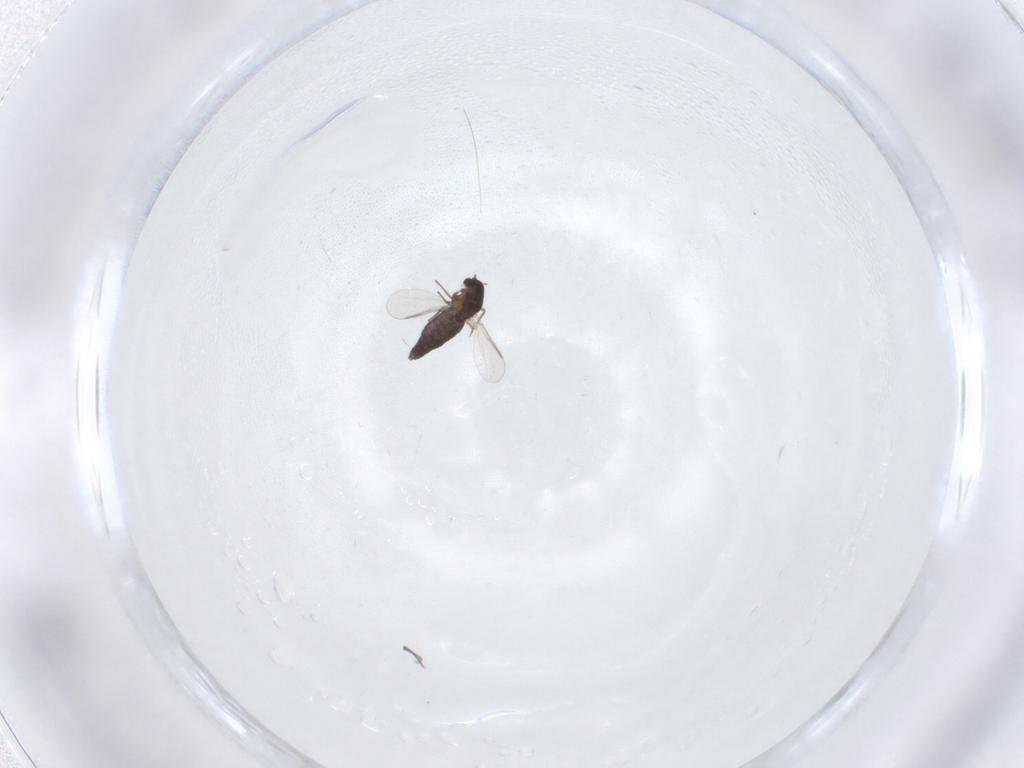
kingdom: Animalia
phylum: Arthropoda
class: Insecta
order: Diptera
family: Chironomidae
